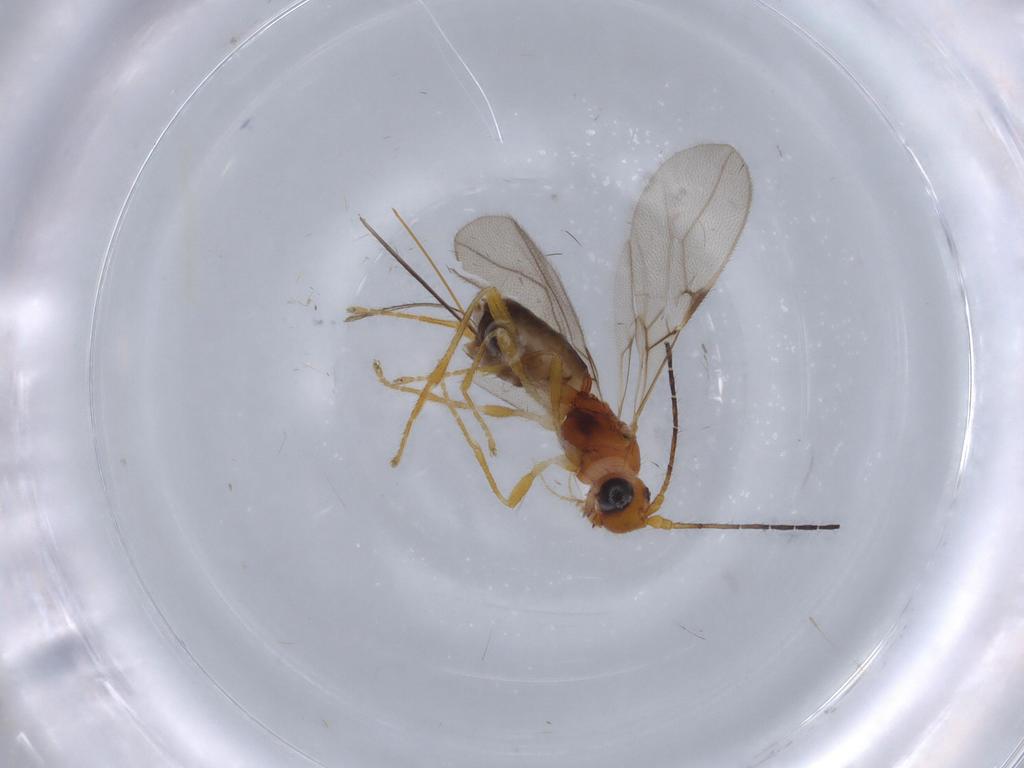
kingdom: Animalia
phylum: Arthropoda
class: Insecta
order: Hymenoptera
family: Braconidae
